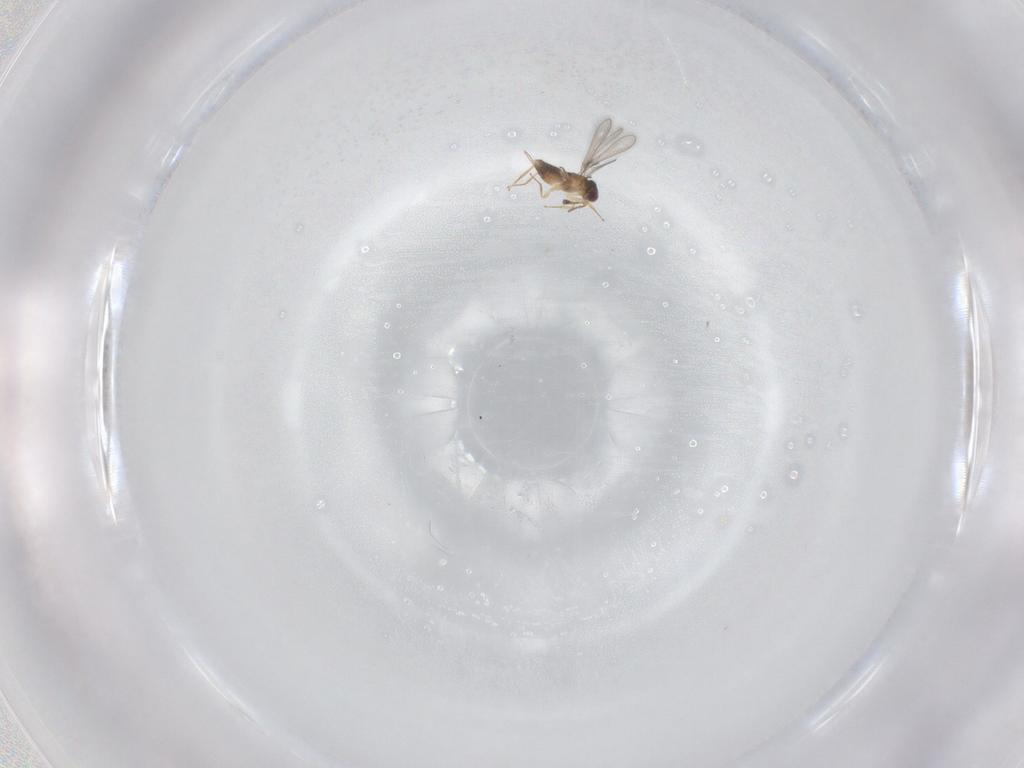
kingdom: Animalia
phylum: Arthropoda
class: Insecta
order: Hymenoptera
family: Mymaridae
